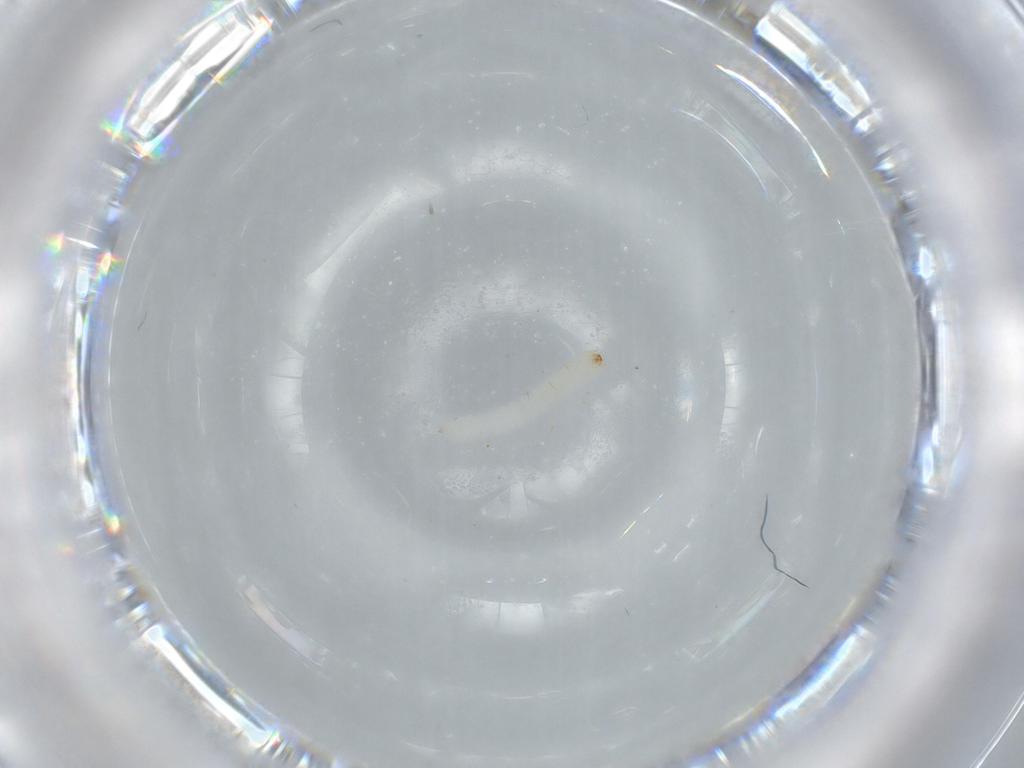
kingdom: Animalia
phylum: Arthropoda
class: Insecta
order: Coleoptera
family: Micromalthidae
